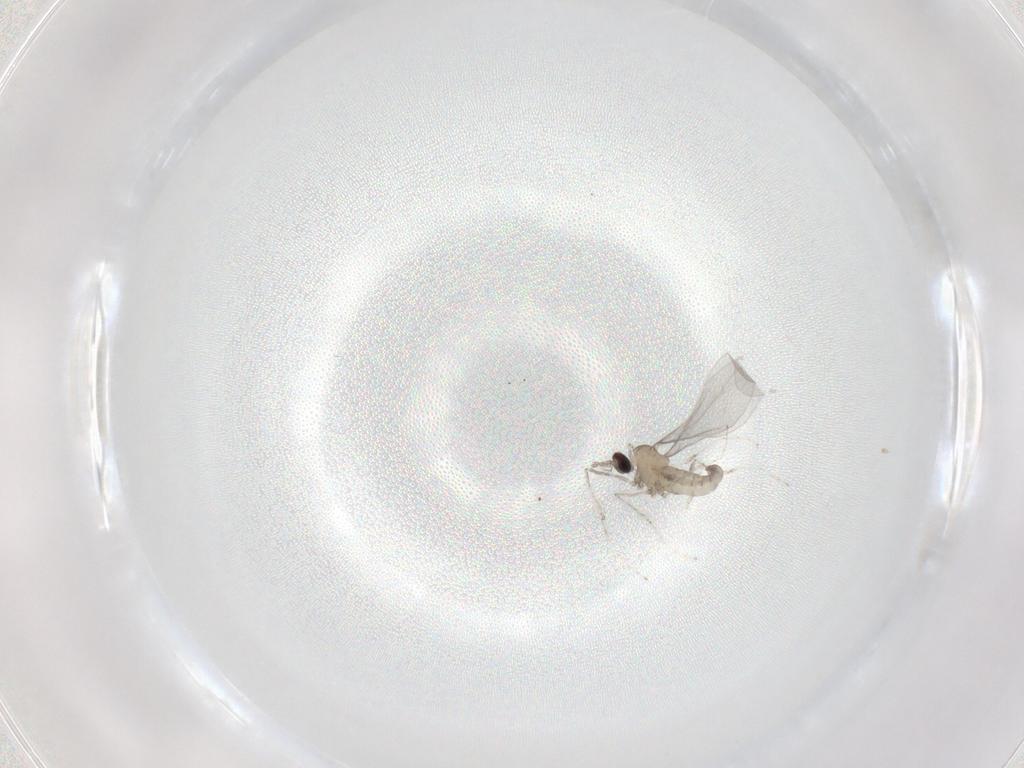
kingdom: Animalia
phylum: Arthropoda
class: Insecta
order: Diptera
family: Cecidomyiidae
